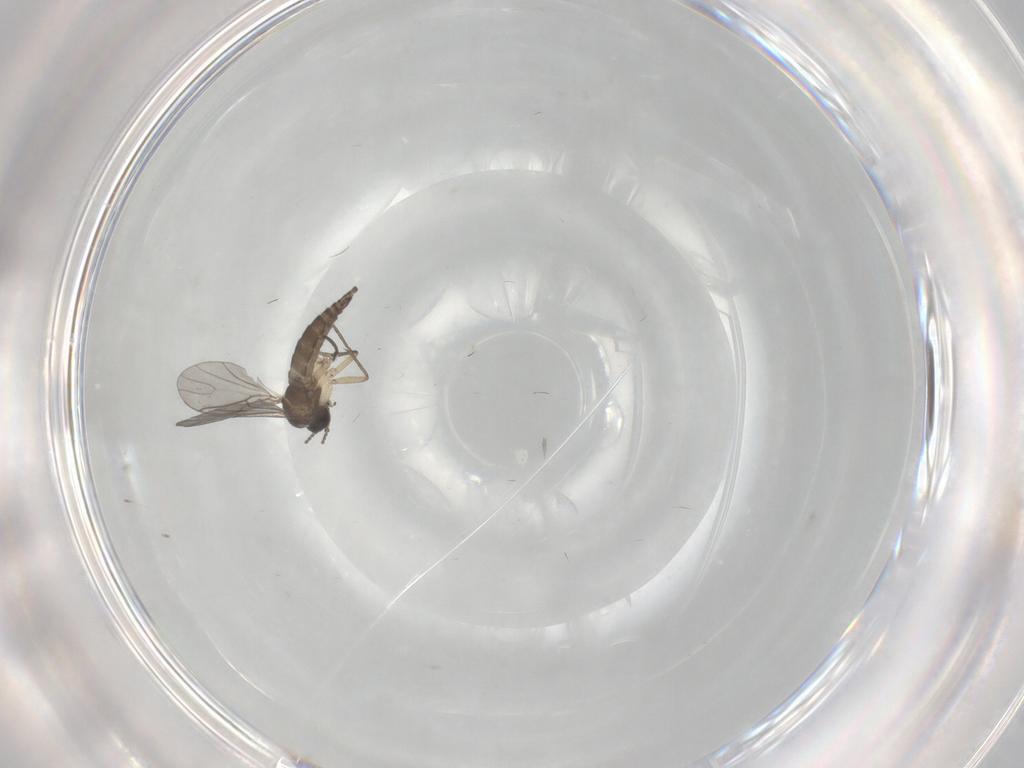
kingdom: Animalia
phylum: Arthropoda
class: Insecta
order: Diptera
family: Sciaridae
